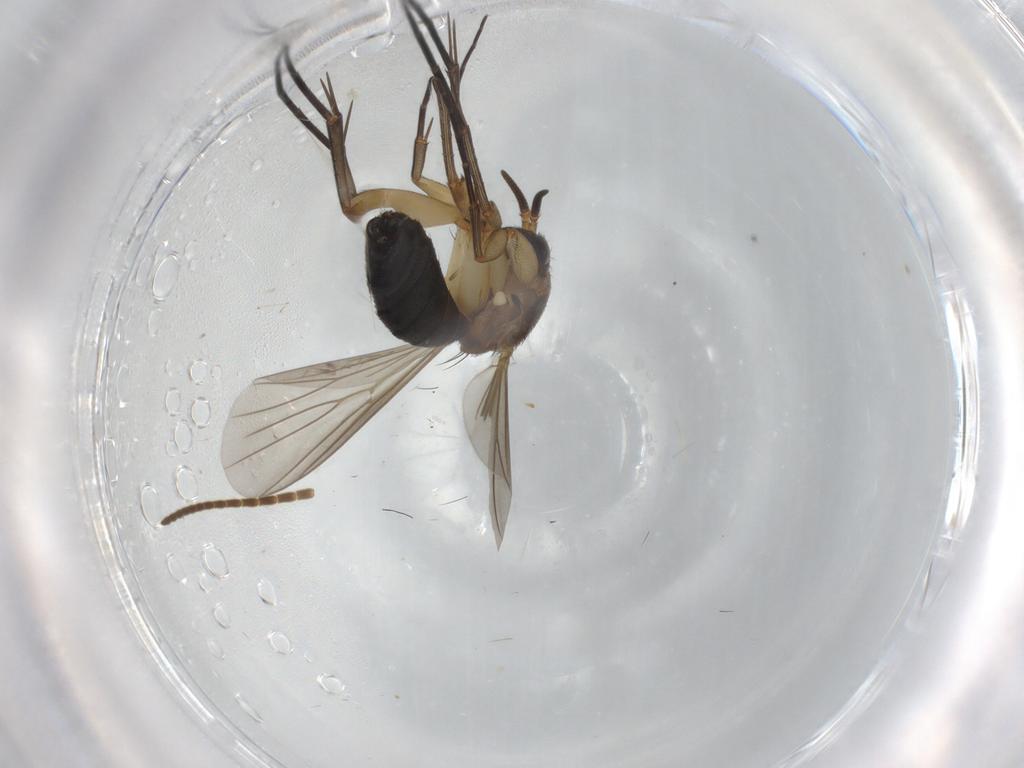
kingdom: Animalia
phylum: Arthropoda
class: Insecta
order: Diptera
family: Mycetophilidae
